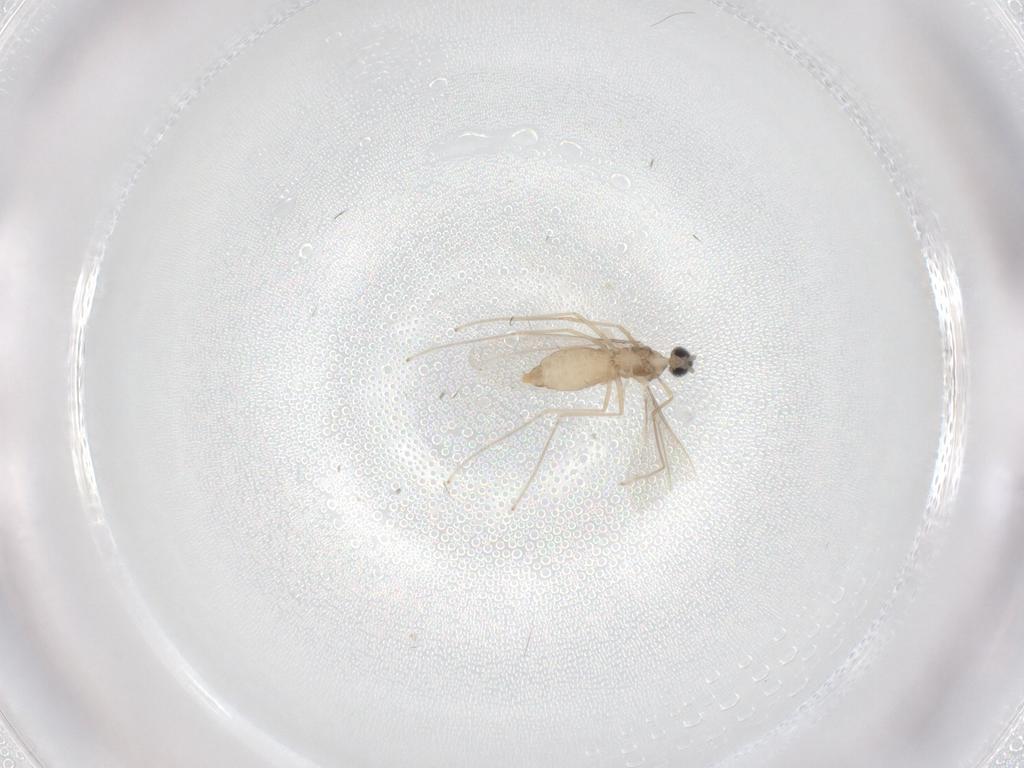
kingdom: Animalia
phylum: Arthropoda
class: Insecta
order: Diptera
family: Cecidomyiidae
